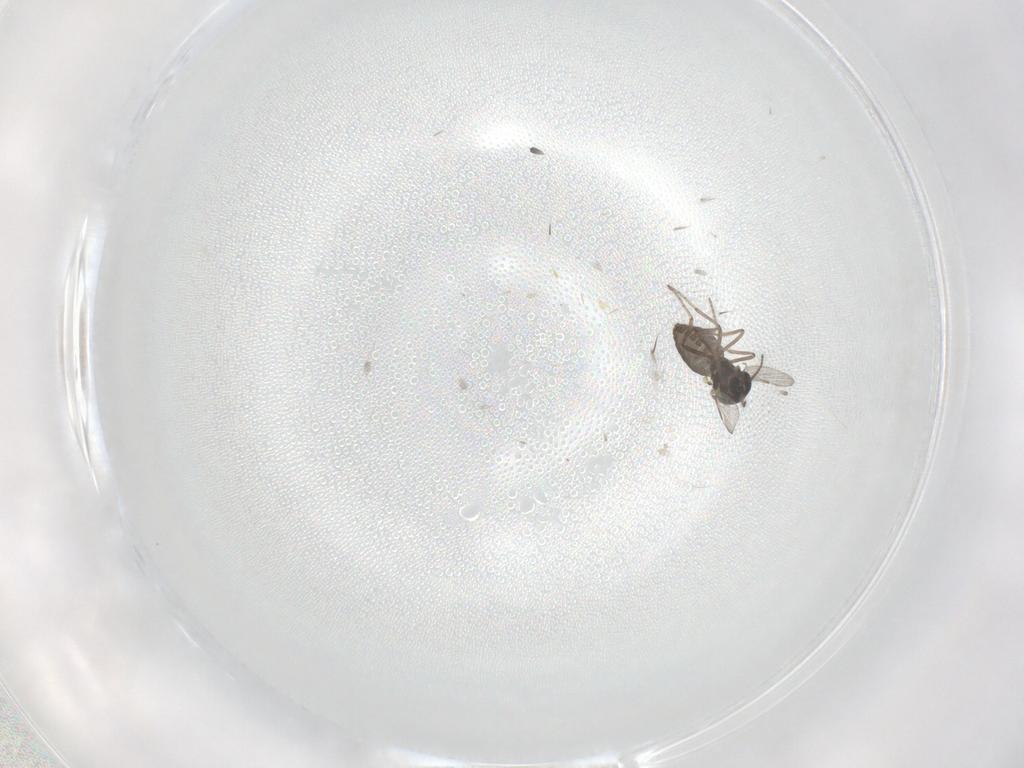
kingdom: Animalia
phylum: Arthropoda
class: Insecta
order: Diptera
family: Ceratopogonidae
